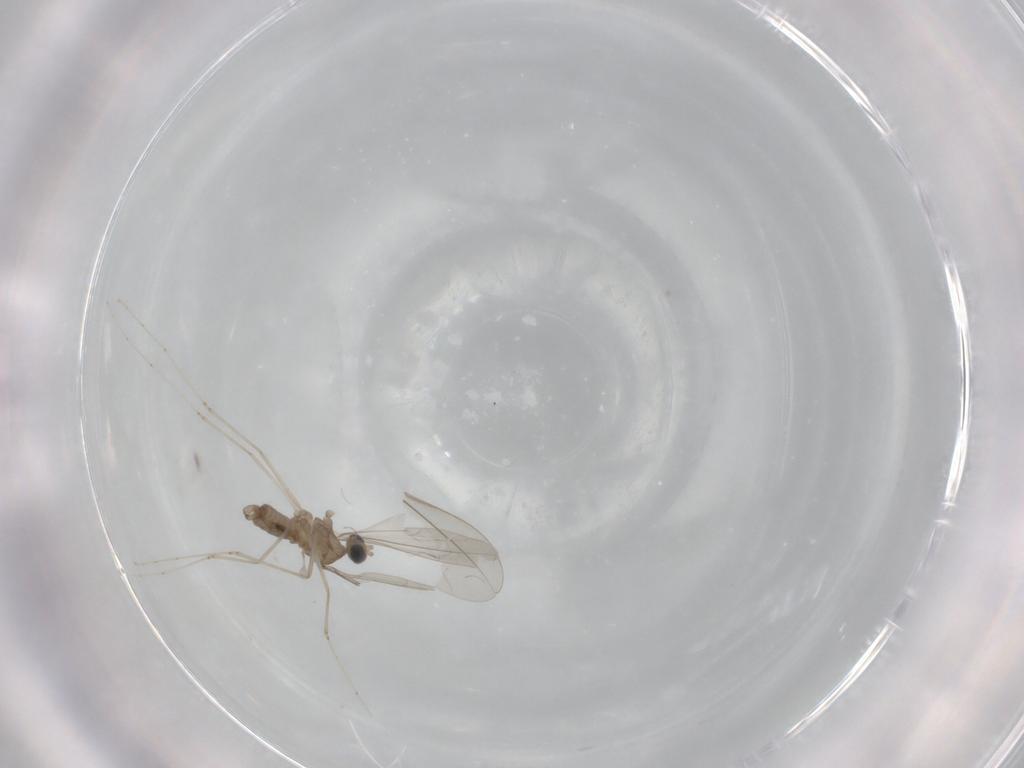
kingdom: Animalia
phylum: Arthropoda
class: Insecta
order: Diptera
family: Cecidomyiidae
